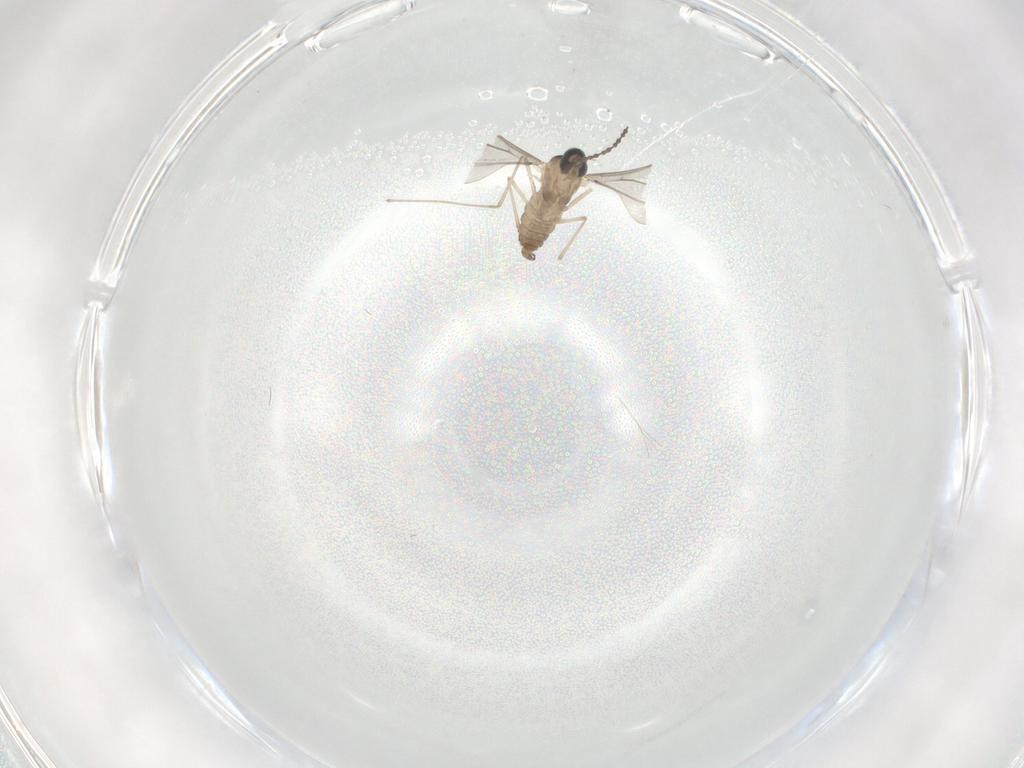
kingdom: Animalia
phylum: Arthropoda
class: Insecta
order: Diptera
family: Cecidomyiidae
